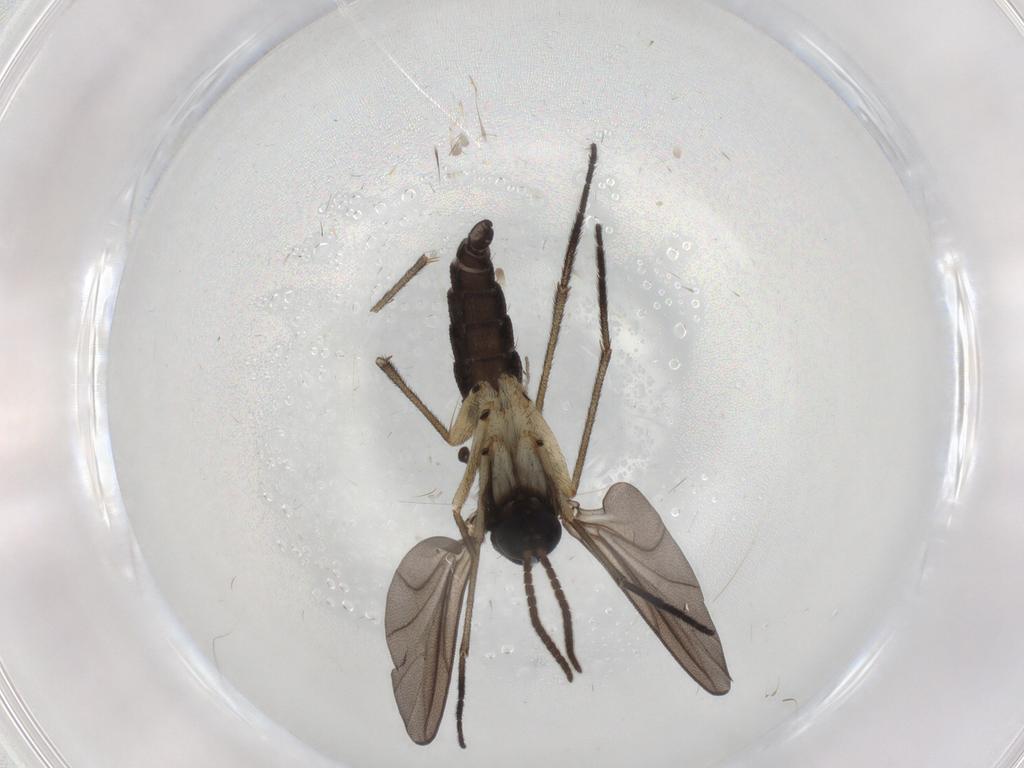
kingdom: Animalia
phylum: Arthropoda
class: Insecta
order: Diptera
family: Sciaridae
